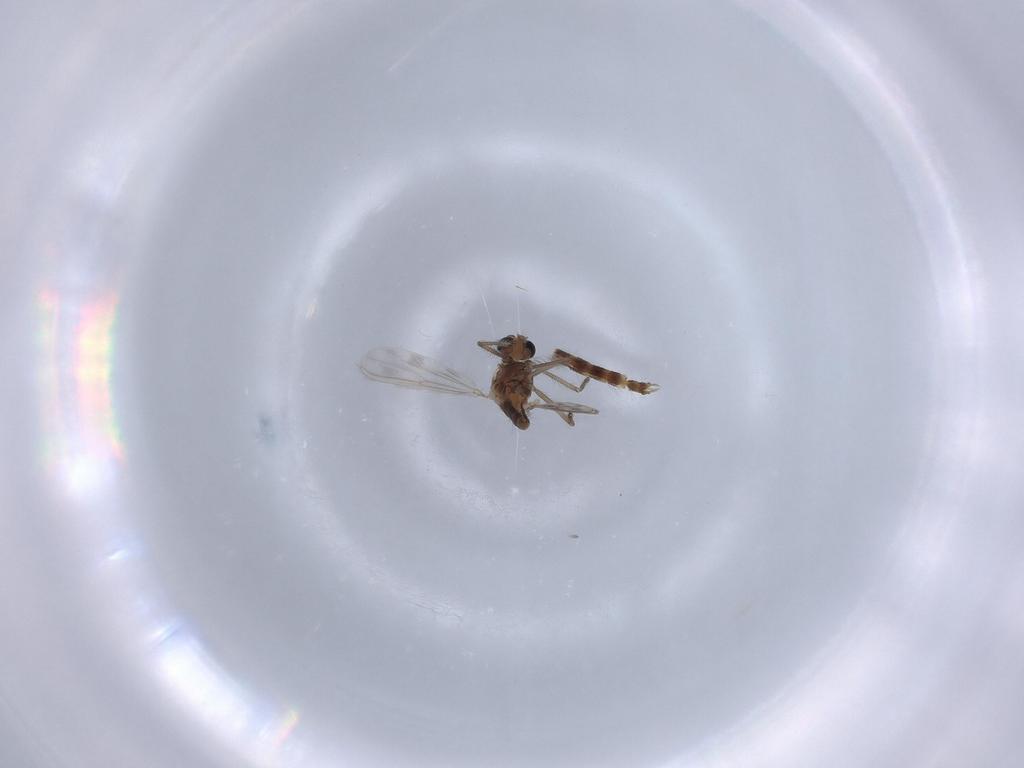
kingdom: Animalia
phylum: Arthropoda
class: Insecta
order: Diptera
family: Chironomidae
